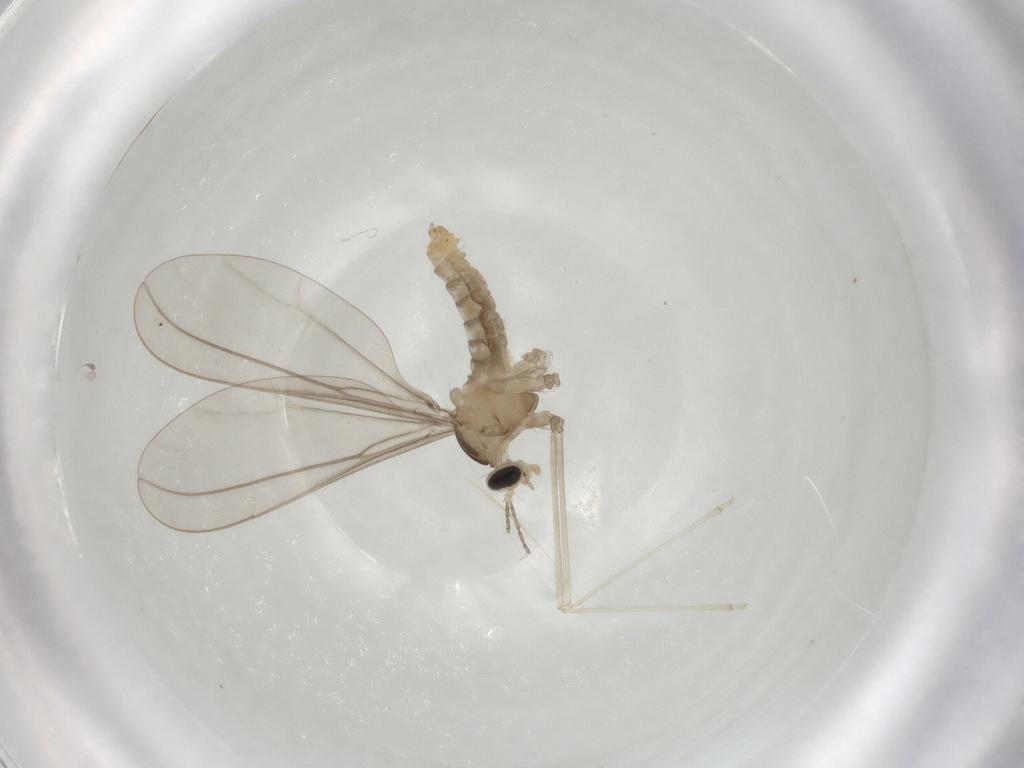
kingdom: Animalia
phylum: Arthropoda
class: Insecta
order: Diptera
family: Cecidomyiidae
